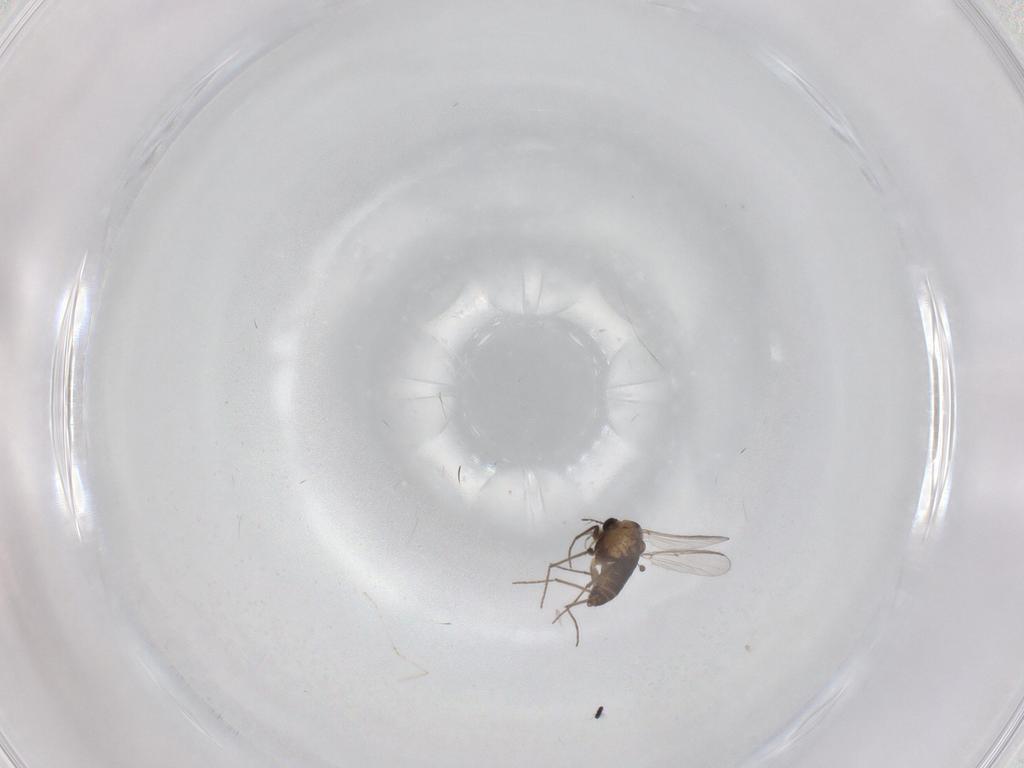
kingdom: Animalia
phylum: Arthropoda
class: Insecta
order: Diptera
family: Chironomidae
